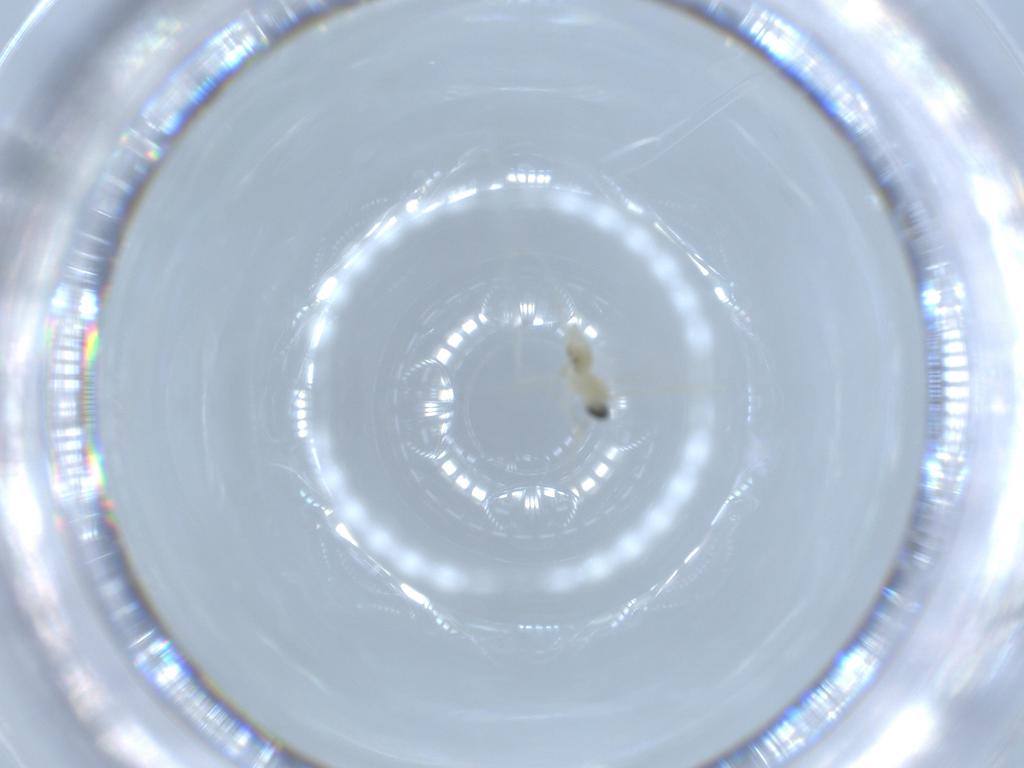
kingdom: Animalia
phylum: Arthropoda
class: Insecta
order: Diptera
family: Cecidomyiidae
